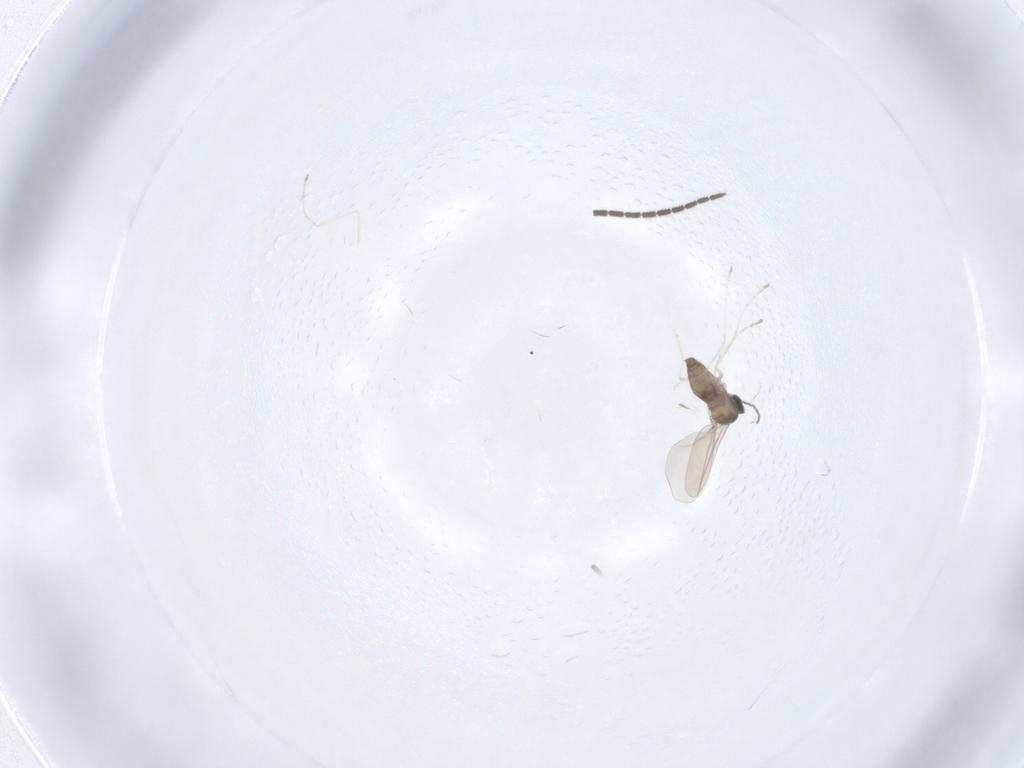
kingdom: Animalia
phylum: Arthropoda
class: Insecta
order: Diptera
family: Cecidomyiidae
